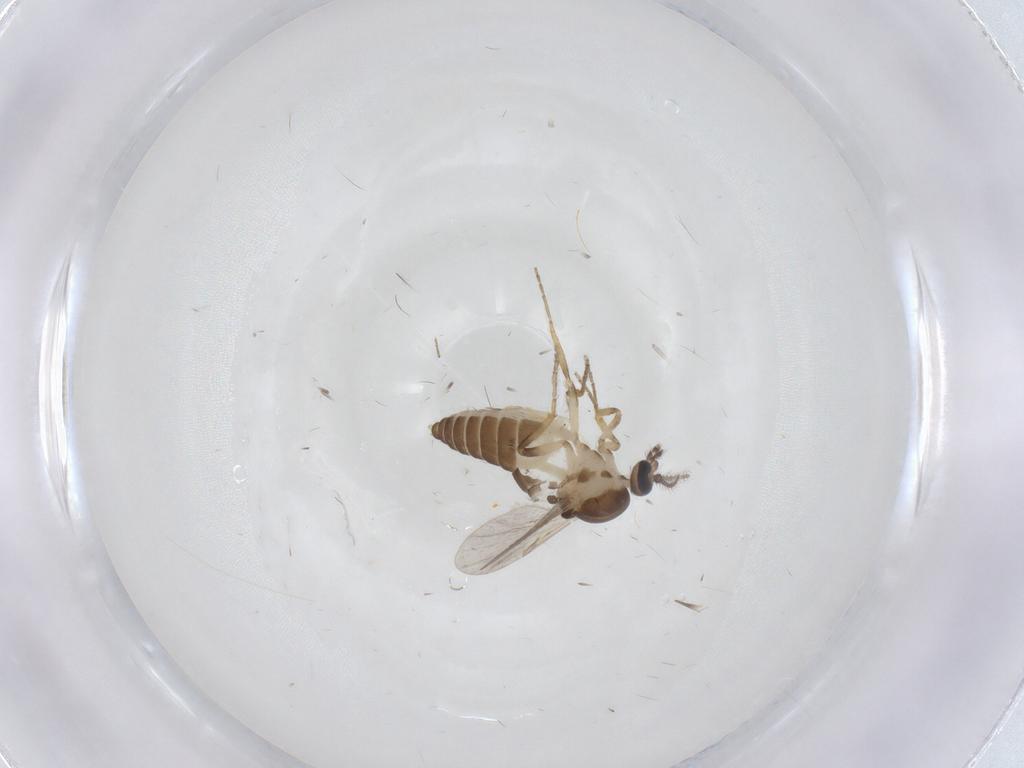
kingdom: Animalia
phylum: Arthropoda
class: Insecta
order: Diptera
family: Ceratopogonidae
